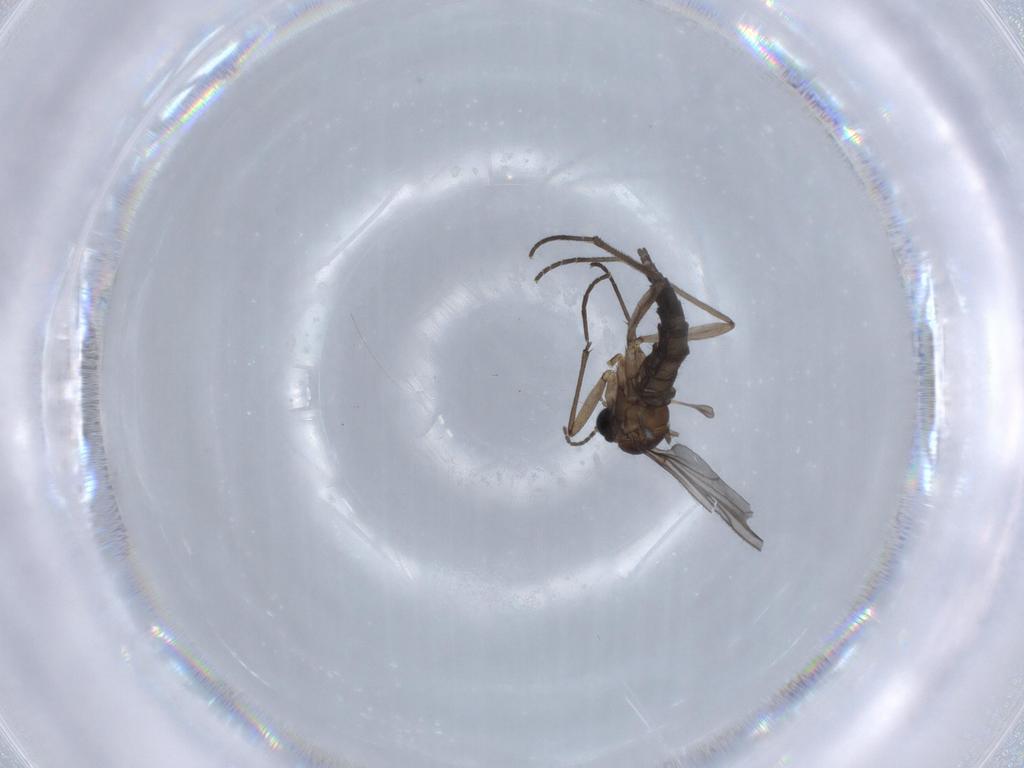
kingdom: Animalia
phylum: Arthropoda
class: Insecta
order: Diptera
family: Sciaridae
